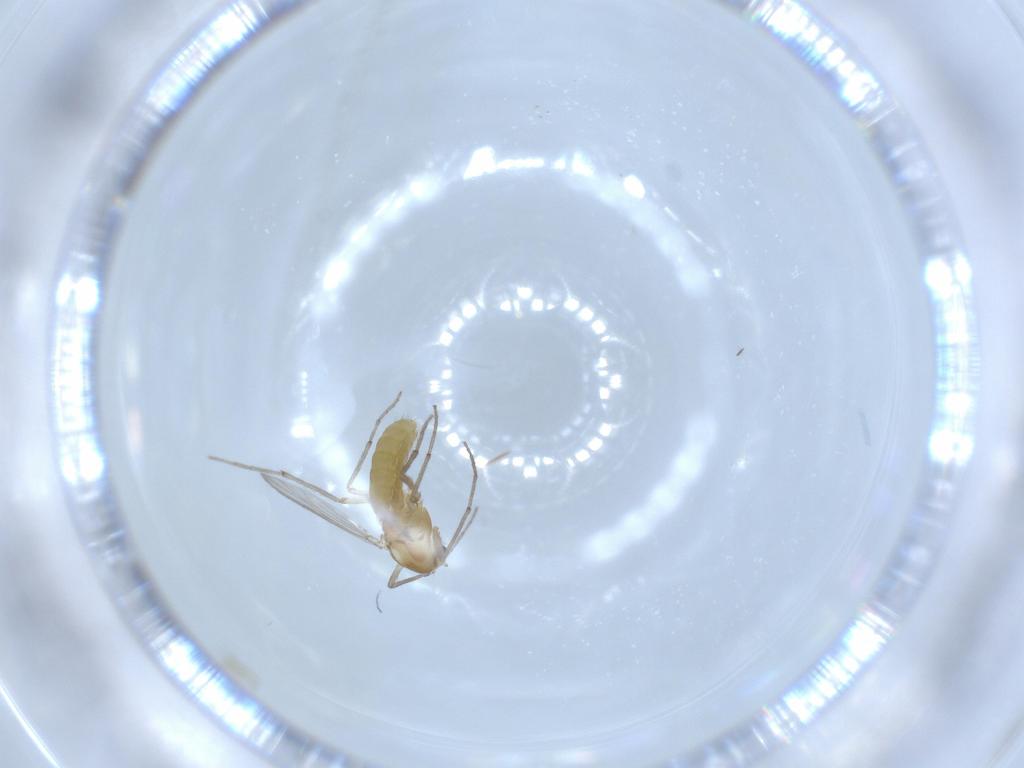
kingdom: Animalia
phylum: Arthropoda
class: Insecta
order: Diptera
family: Chironomidae
